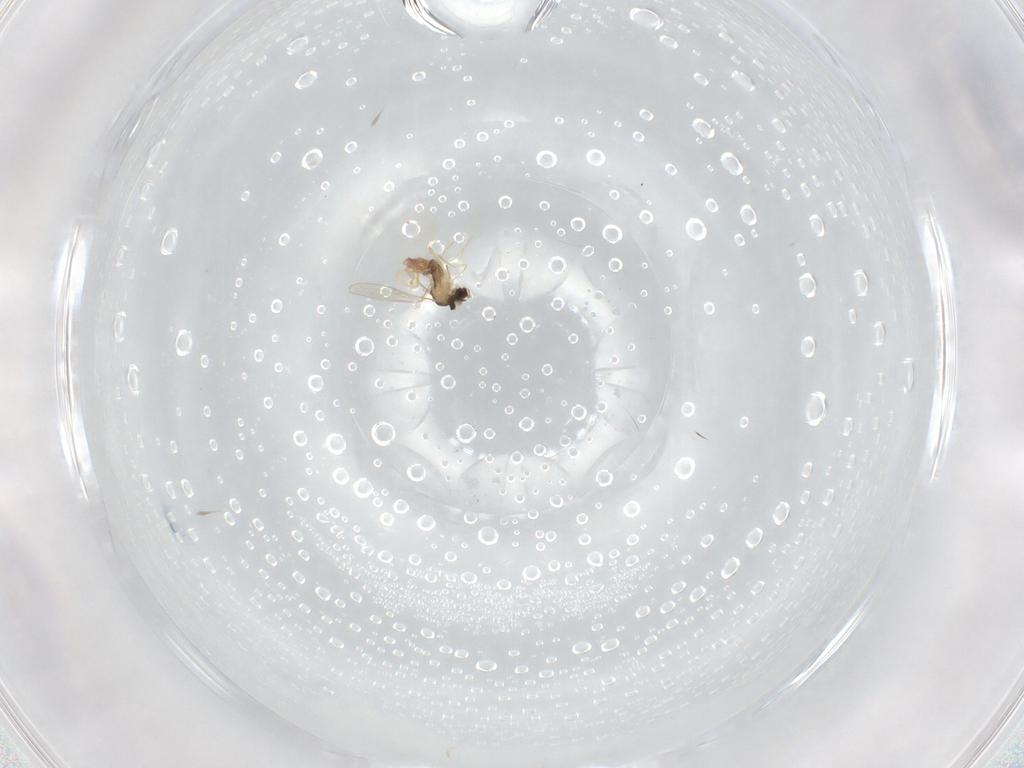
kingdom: Animalia
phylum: Arthropoda
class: Insecta
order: Diptera
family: Cecidomyiidae
